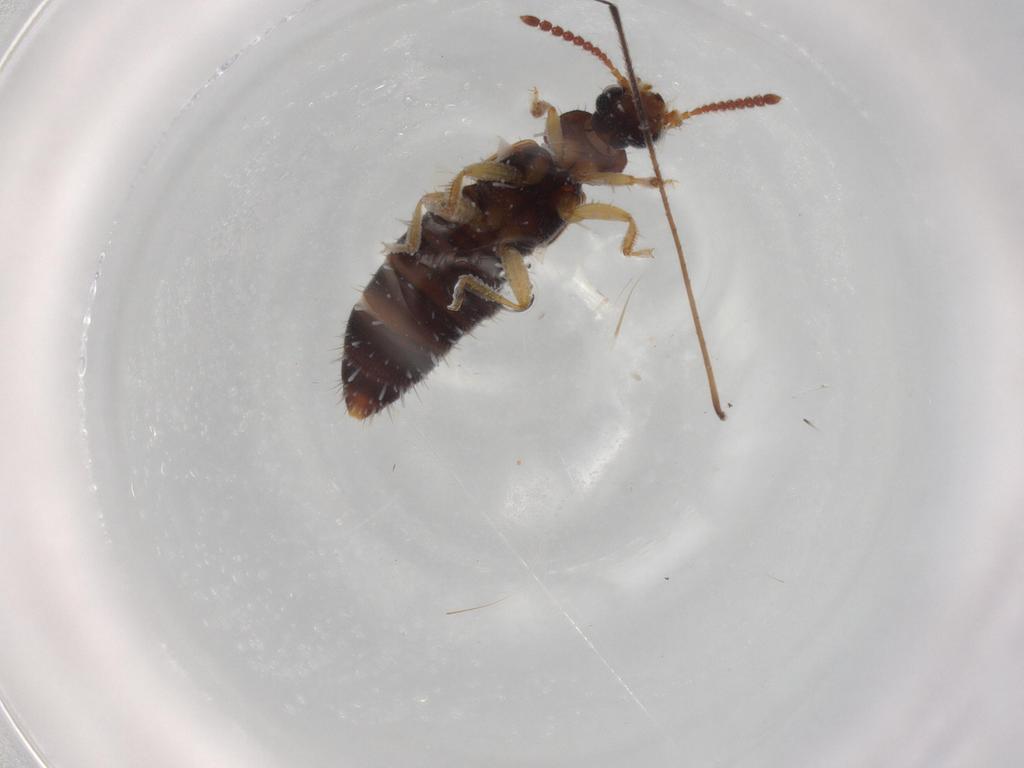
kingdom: Animalia
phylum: Arthropoda
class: Insecta
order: Coleoptera
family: Staphylinidae
